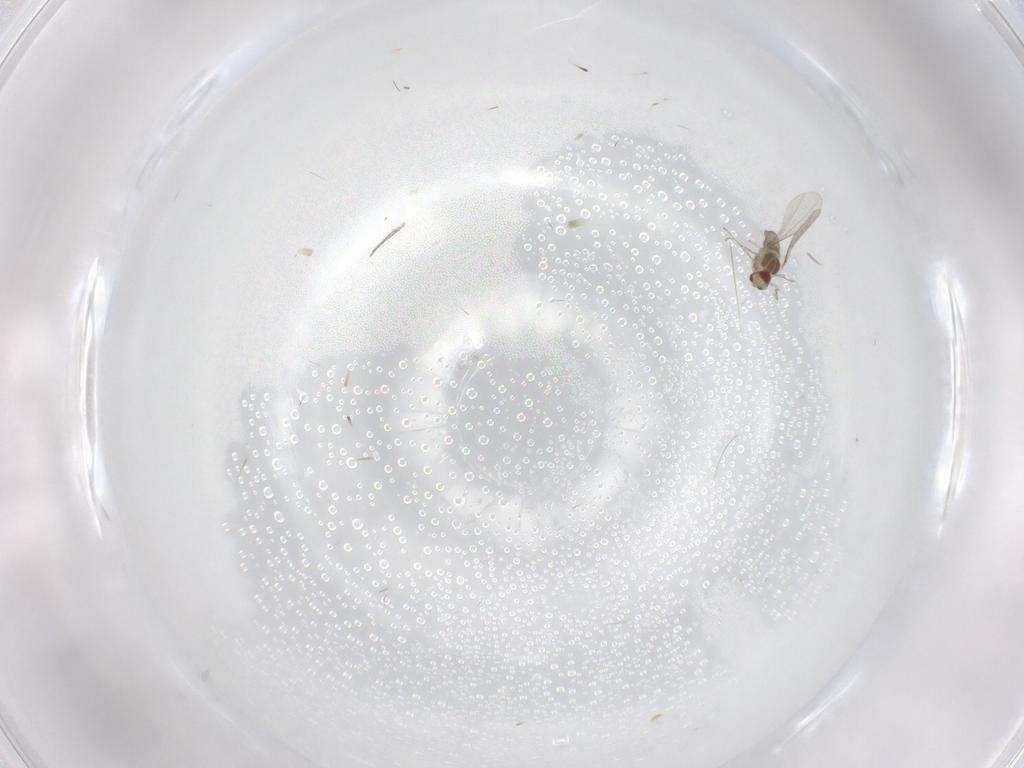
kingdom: Animalia
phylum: Arthropoda
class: Insecta
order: Diptera
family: Cecidomyiidae
